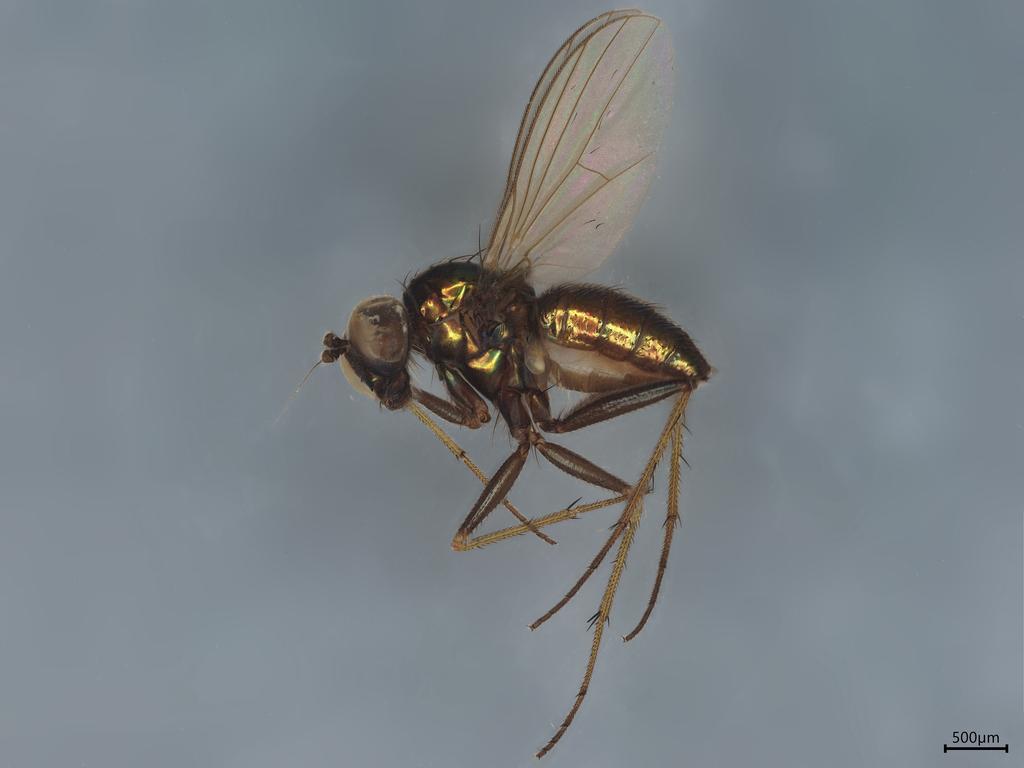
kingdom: Animalia
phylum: Arthropoda
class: Insecta
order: Diptera
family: Dolichopodidae
